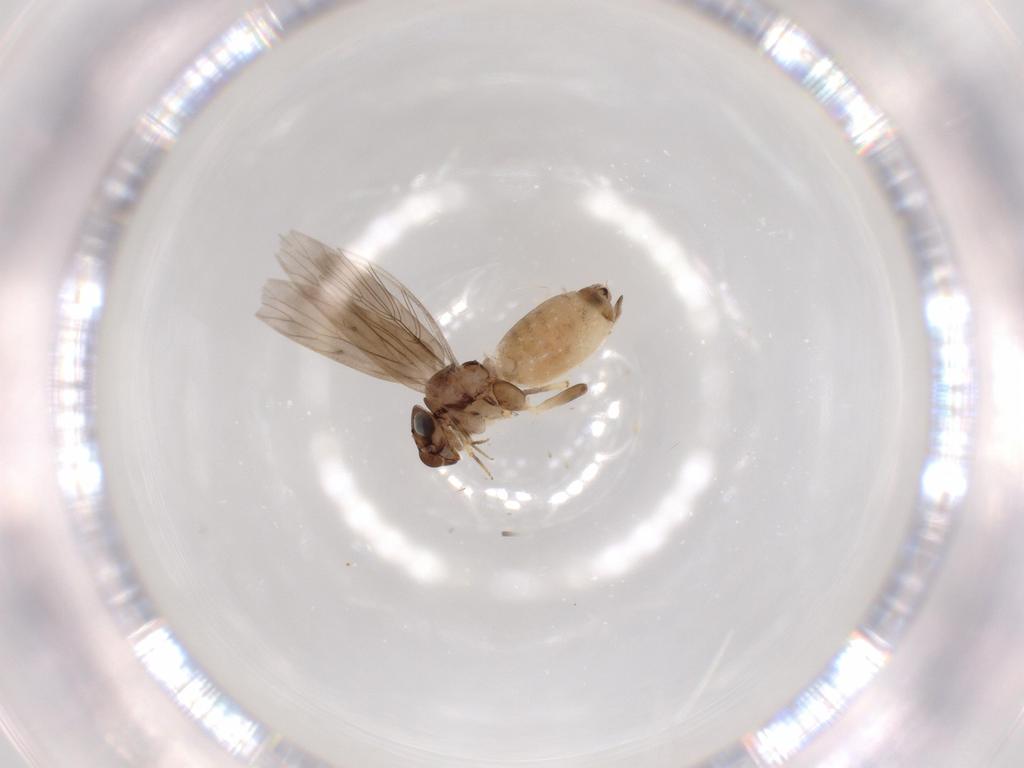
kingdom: Animalia
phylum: Arthropoda
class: Insecta
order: Psocodea
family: Lepidopsocidae
